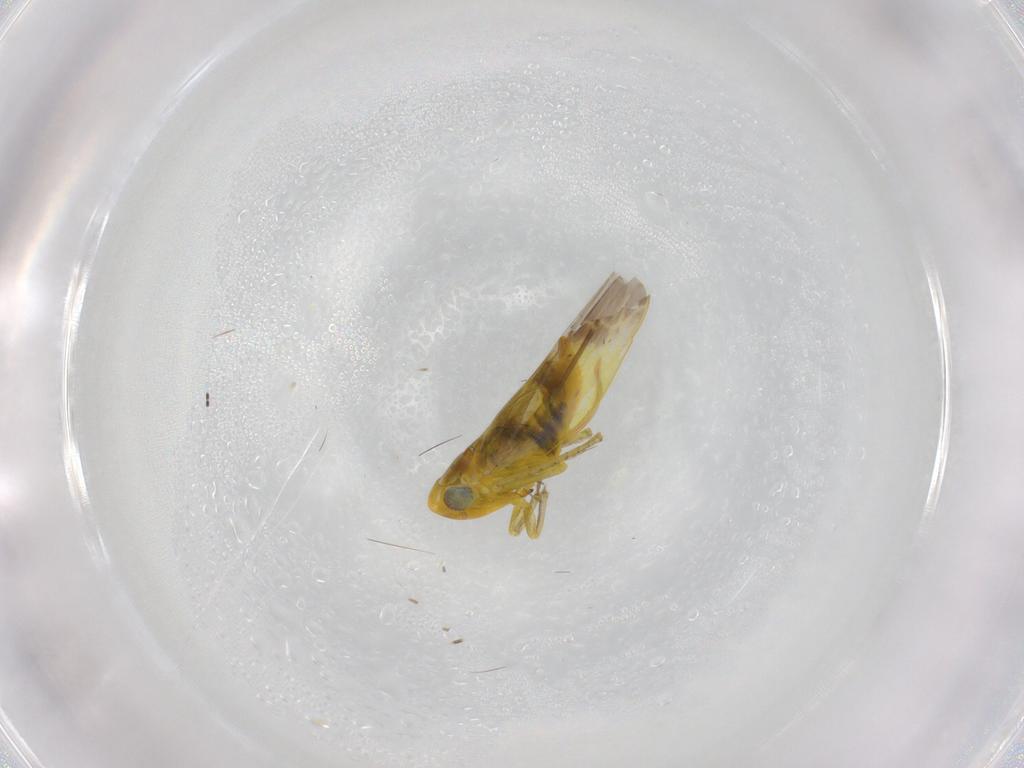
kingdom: Animalia
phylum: Arthropoda
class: Insecta
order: Hemiptera
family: Cicadellidae
